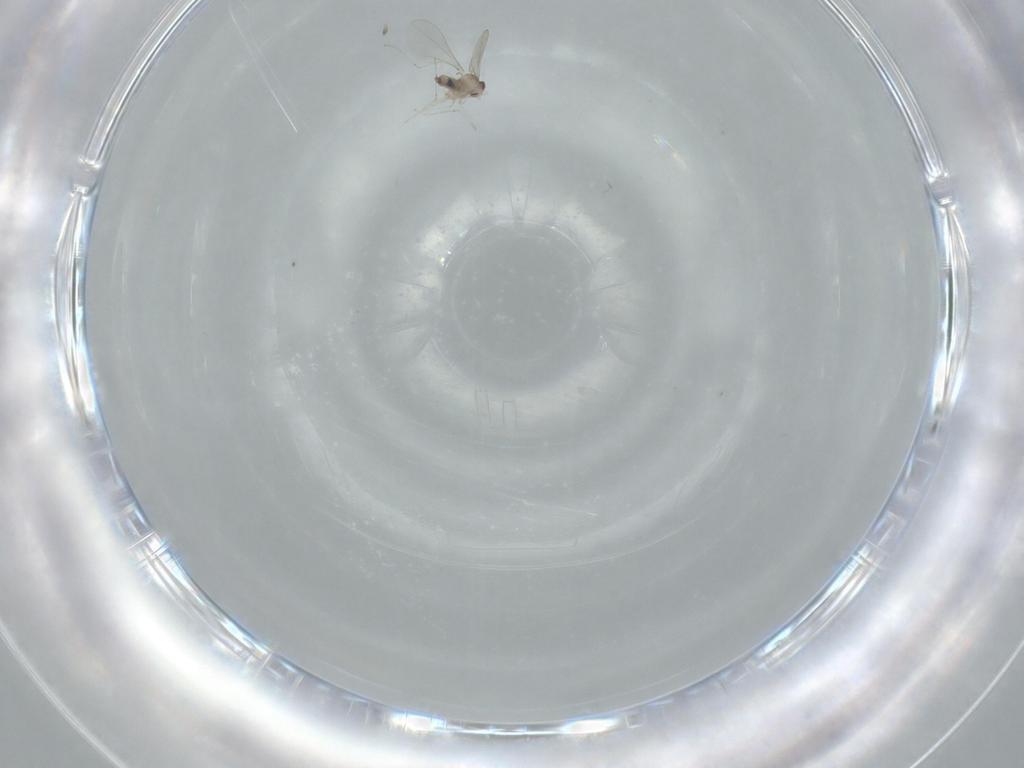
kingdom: Animalia
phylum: Arthropoda
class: Insecta
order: Diptera
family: Cecidomyiidae
